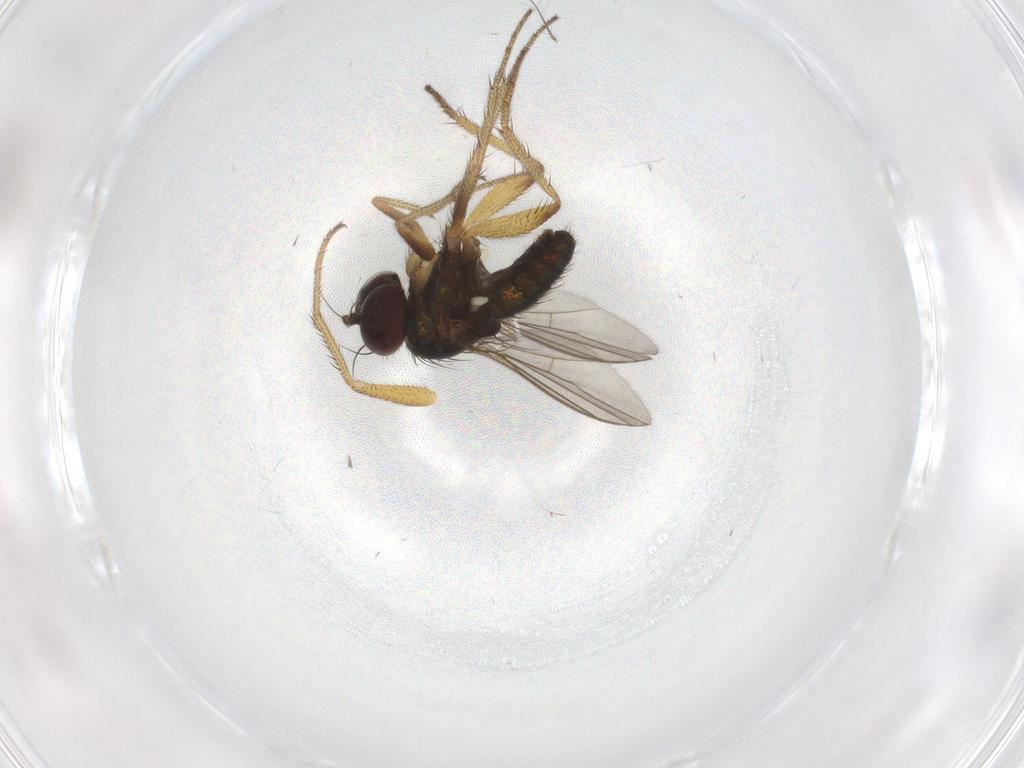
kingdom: Animalia
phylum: Arthropoda
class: Insecta
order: Diptera
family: Dolichopodidae
